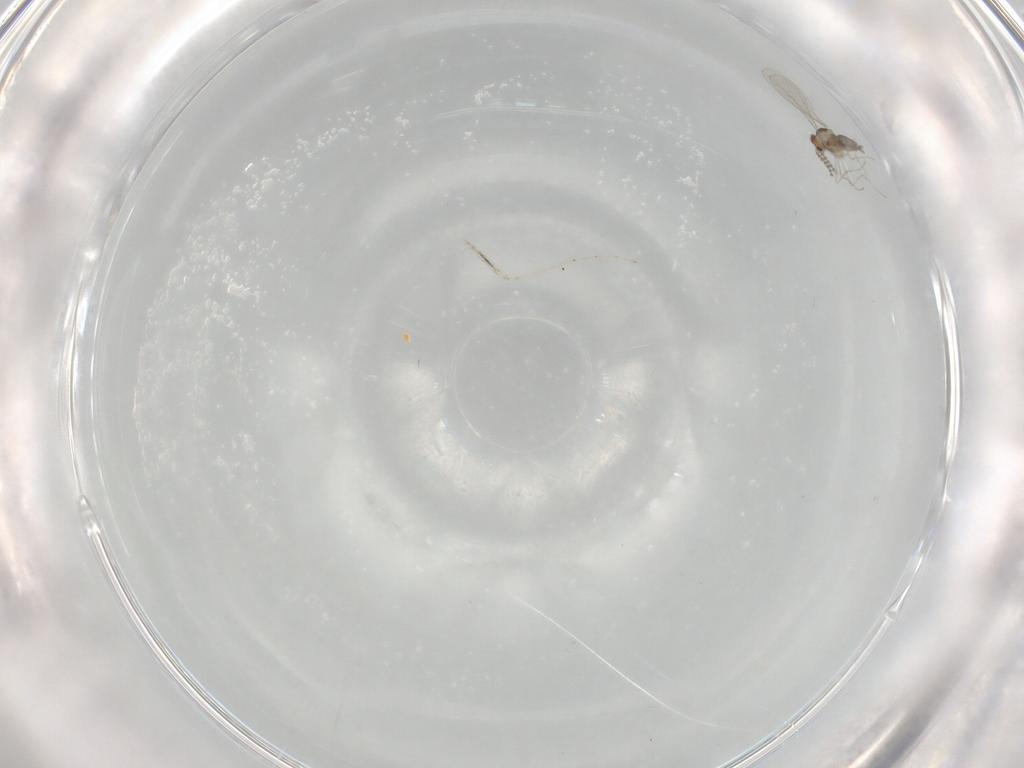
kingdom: Animalia
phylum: Arthropoda
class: Insecta
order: Diptera
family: Cecidomyiidae
